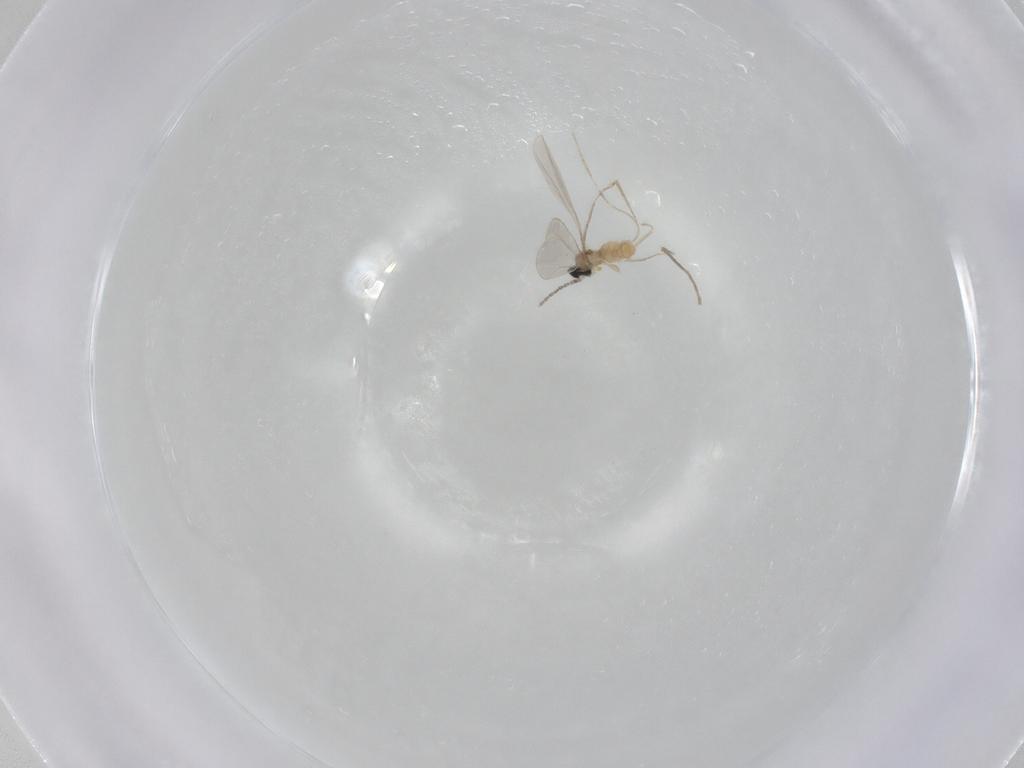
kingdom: Animalia
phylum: Arthropoda
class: Insecta
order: Diptera
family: Cecidomyiidae
